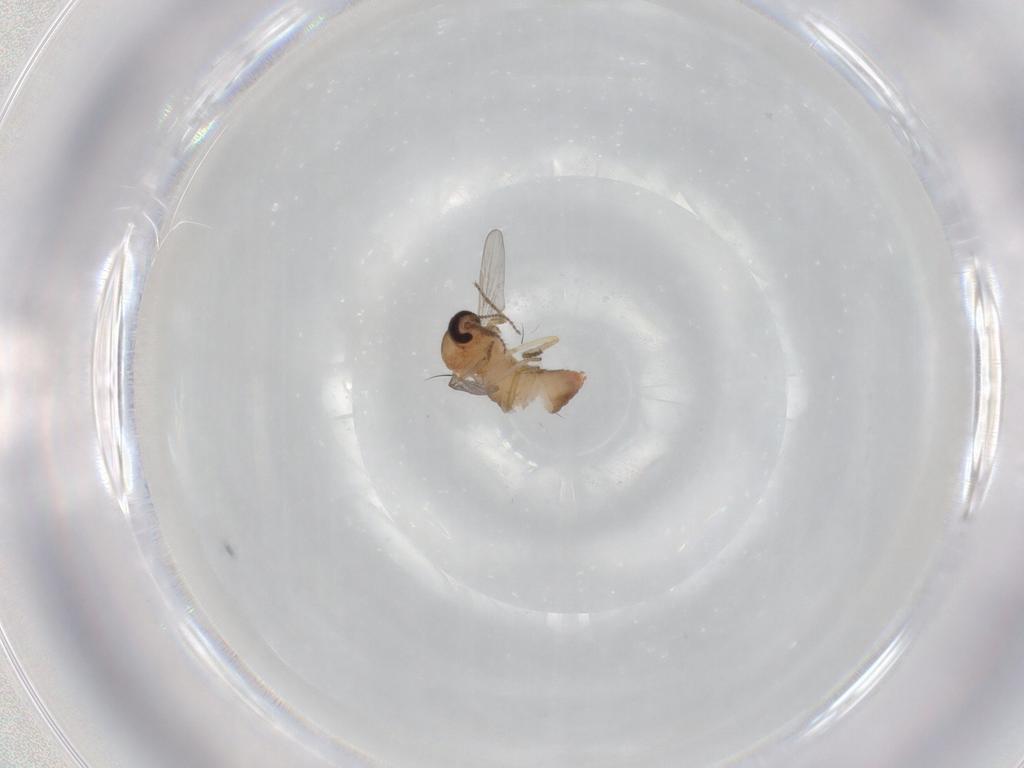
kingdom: Animalia
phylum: Arthropoda
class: Insecta
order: Diptera
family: Ceratopogonidae
